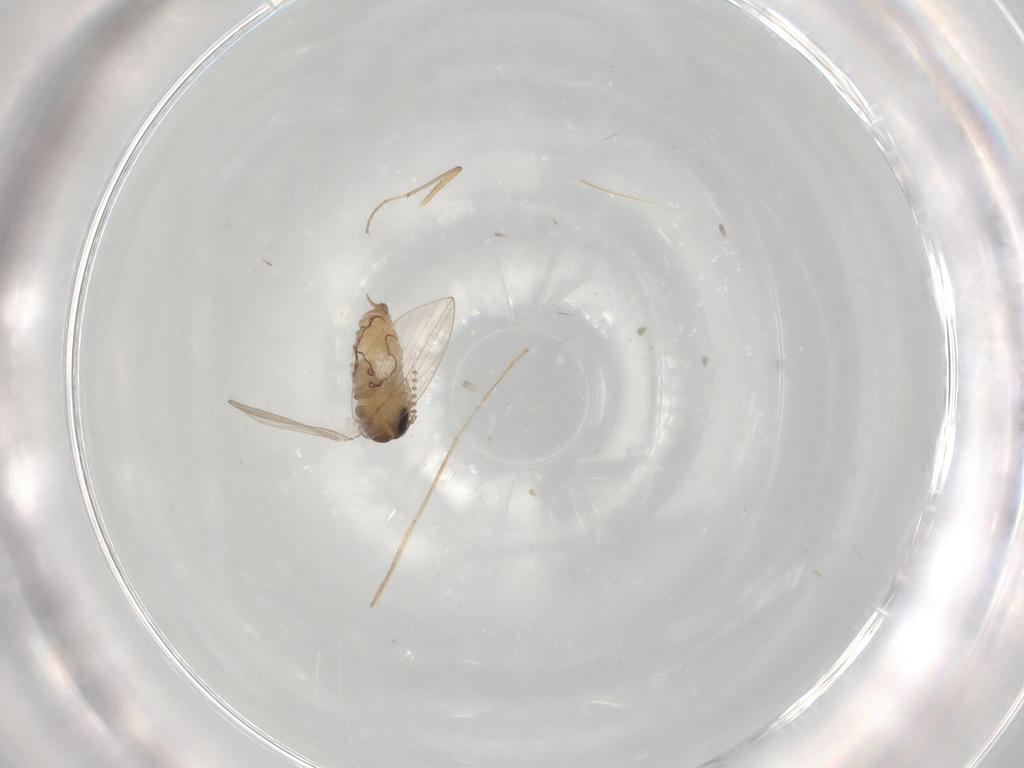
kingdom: Animalia
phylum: Arthropoda
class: Insecta
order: Diptera
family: Psychodidae
